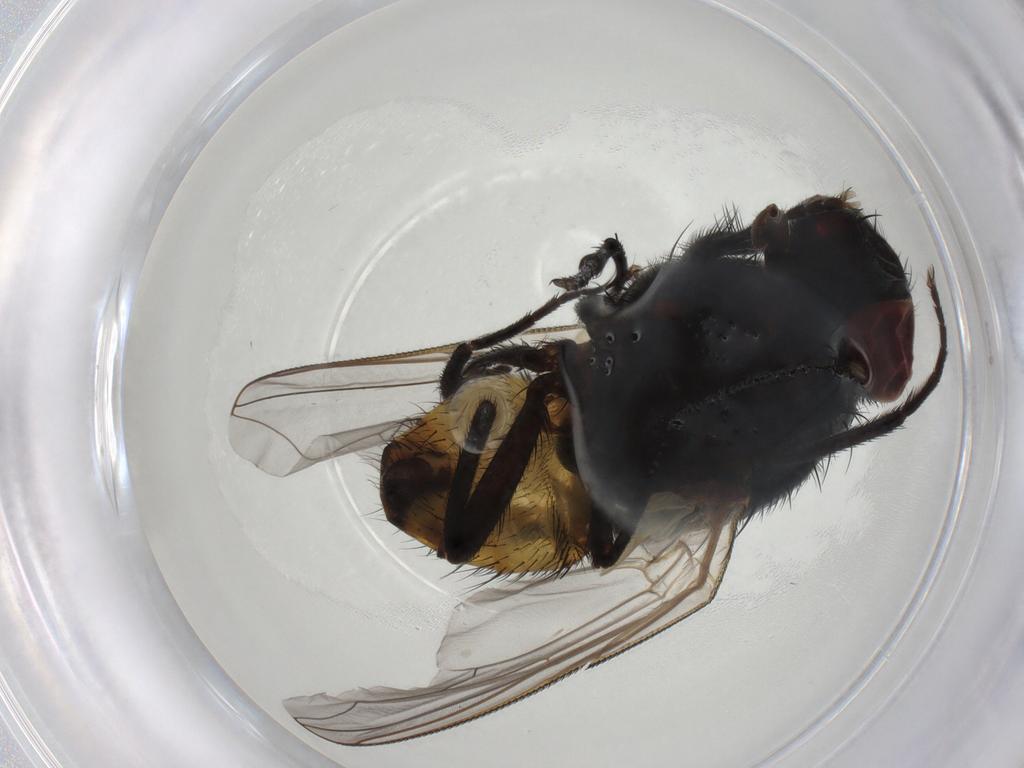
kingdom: Animalia
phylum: Arthropoda
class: Insecta
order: Diptera
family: Muscidae
